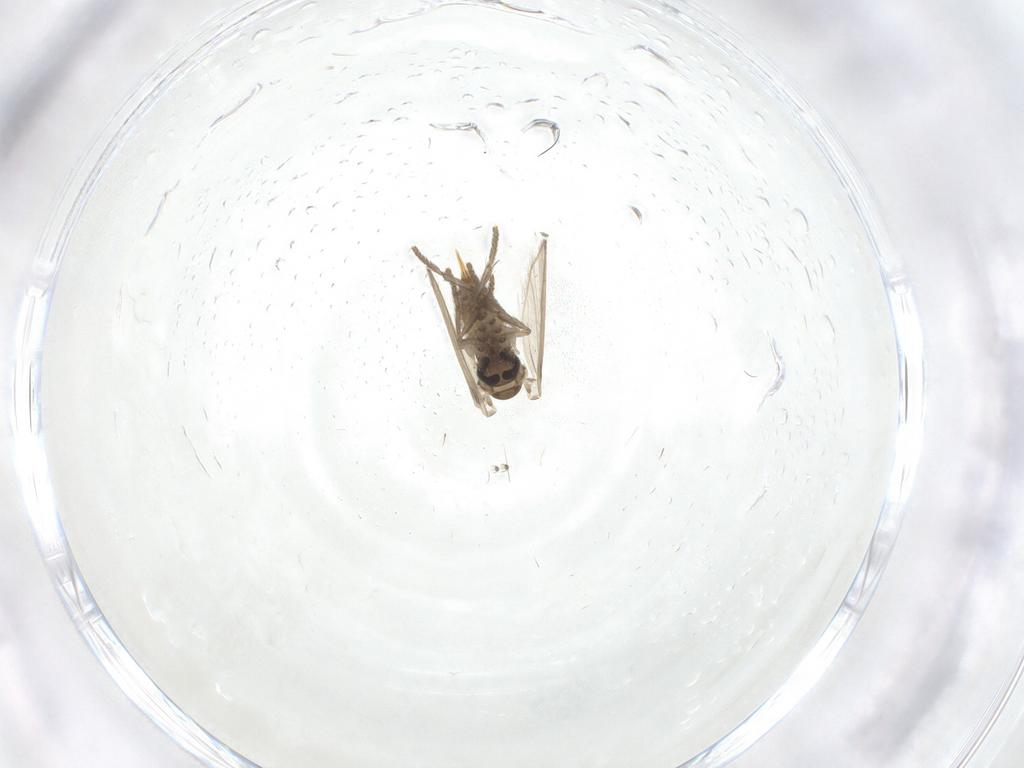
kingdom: Animalia
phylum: Arthropoda
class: Insecta
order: Diptera
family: Psychodidae
